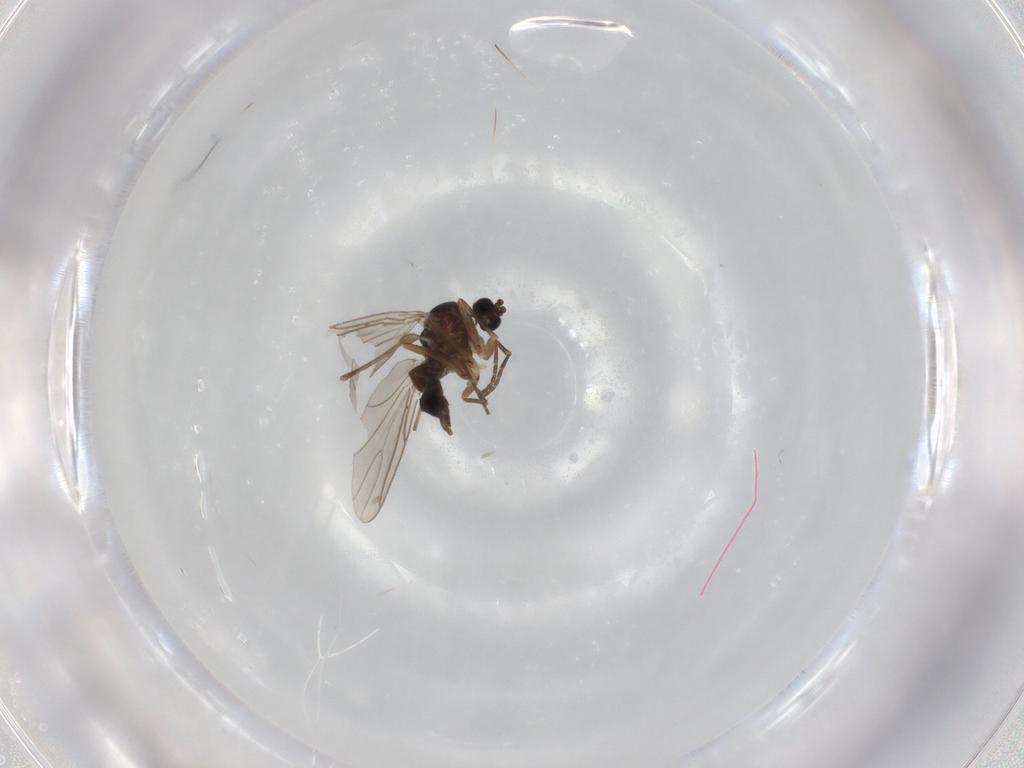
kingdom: Animalia
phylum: Arthropoda
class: Insecta
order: Diptera
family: Chironomidae
